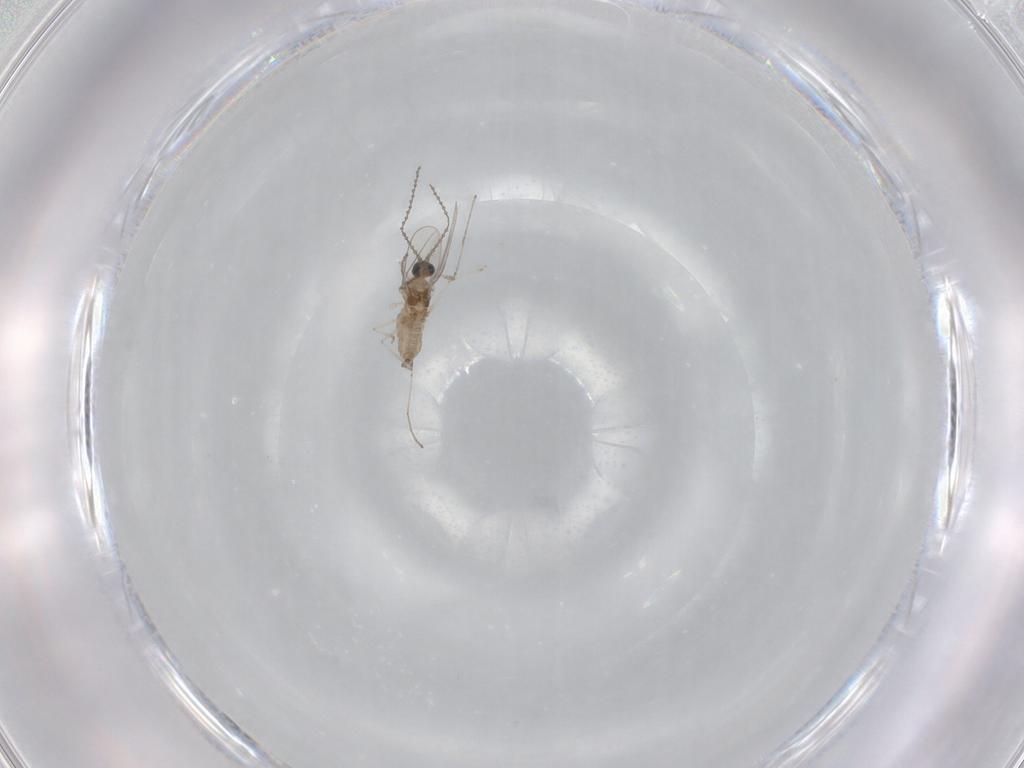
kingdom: Animalia
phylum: Arthropoda
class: Insecta
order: Diptera
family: Cecidomyiidae
